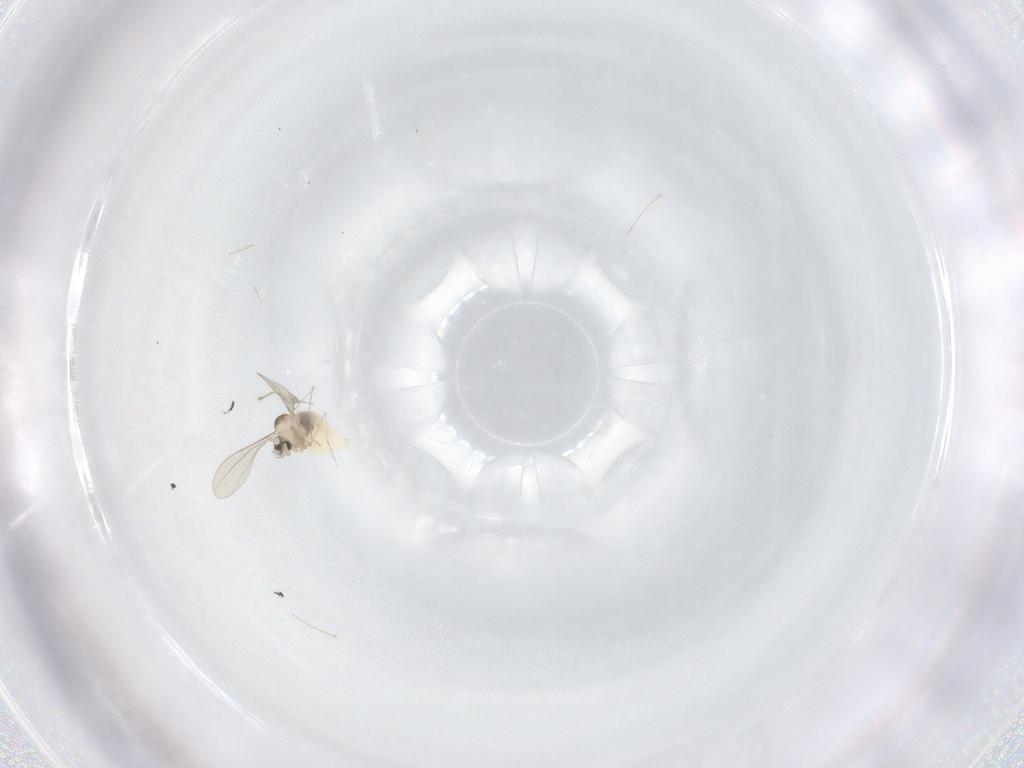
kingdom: Animalia
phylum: Arthropoda
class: Insecta
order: Diptera
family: Cecidomyiidae
